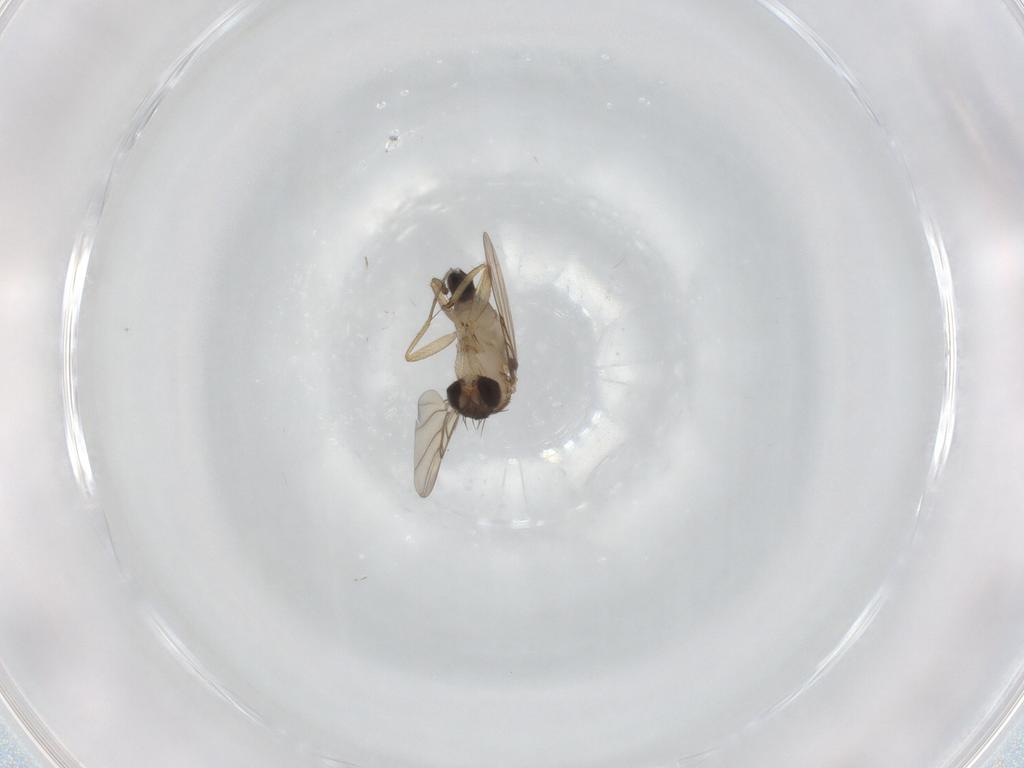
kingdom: Animalia
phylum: Arthropoda
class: Insecta
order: Diptera
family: Phoridae
